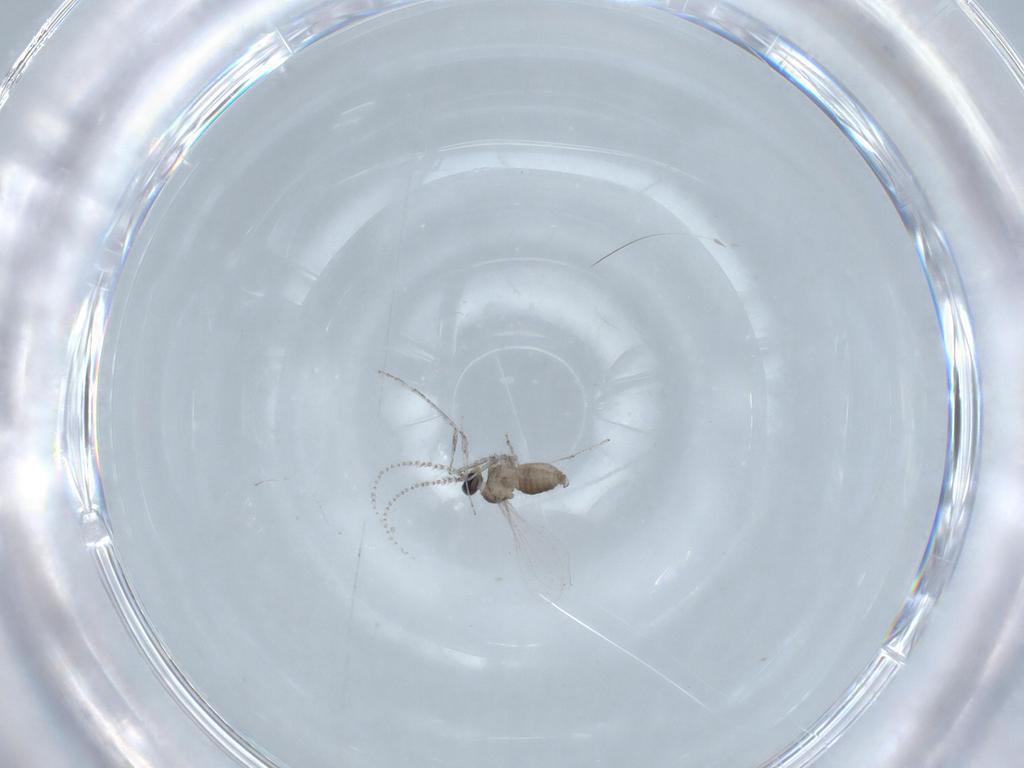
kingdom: Animalia
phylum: Arthropoda
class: Insecta
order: Diptera
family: Cecidomyiidae
